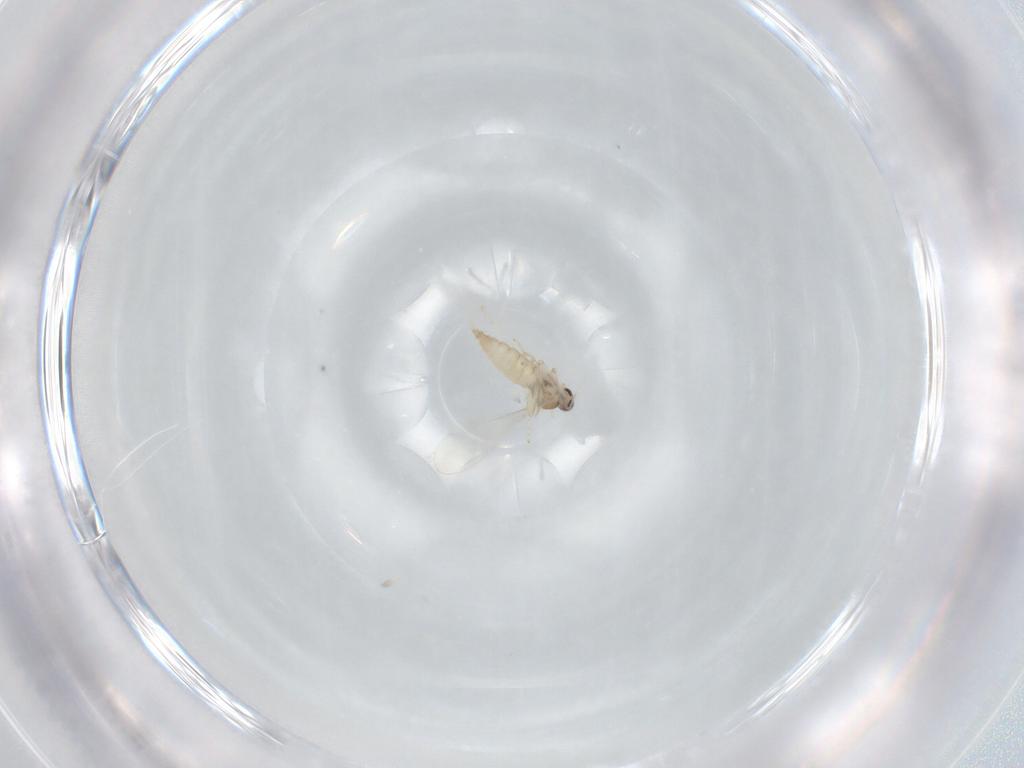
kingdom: Animalia
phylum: Arthropoda
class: Insecta
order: Diptera
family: Cecidomyiidae
